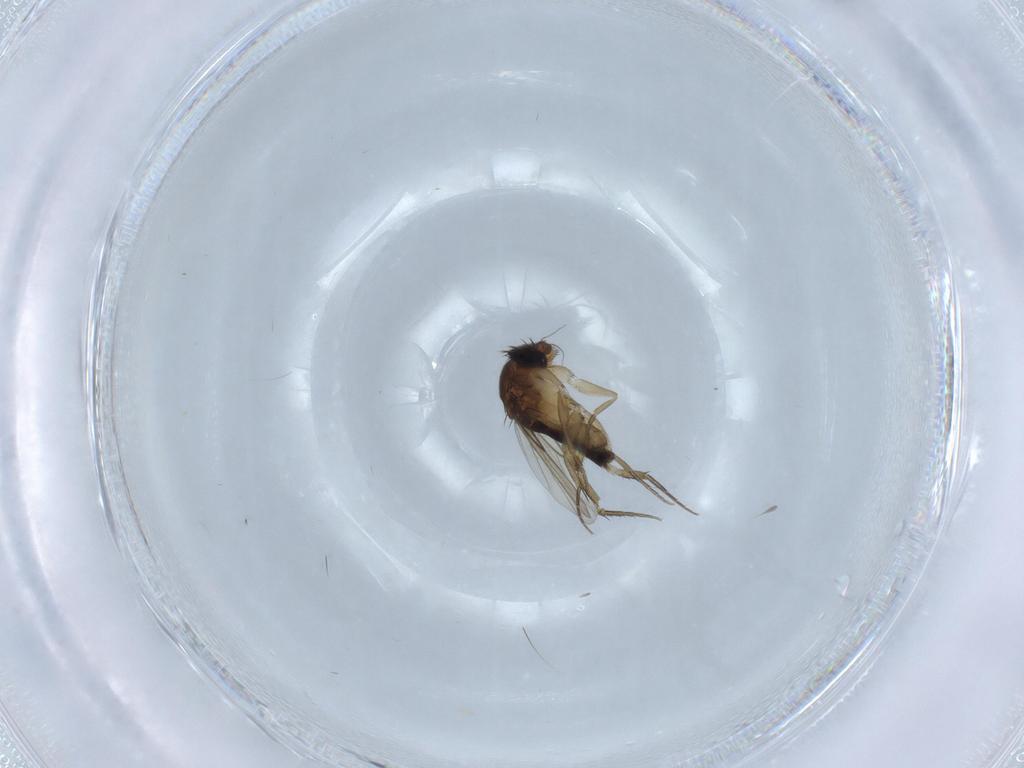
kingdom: Animalia
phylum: Arthropoda
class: Insecta
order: Diptera
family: Phoridae
